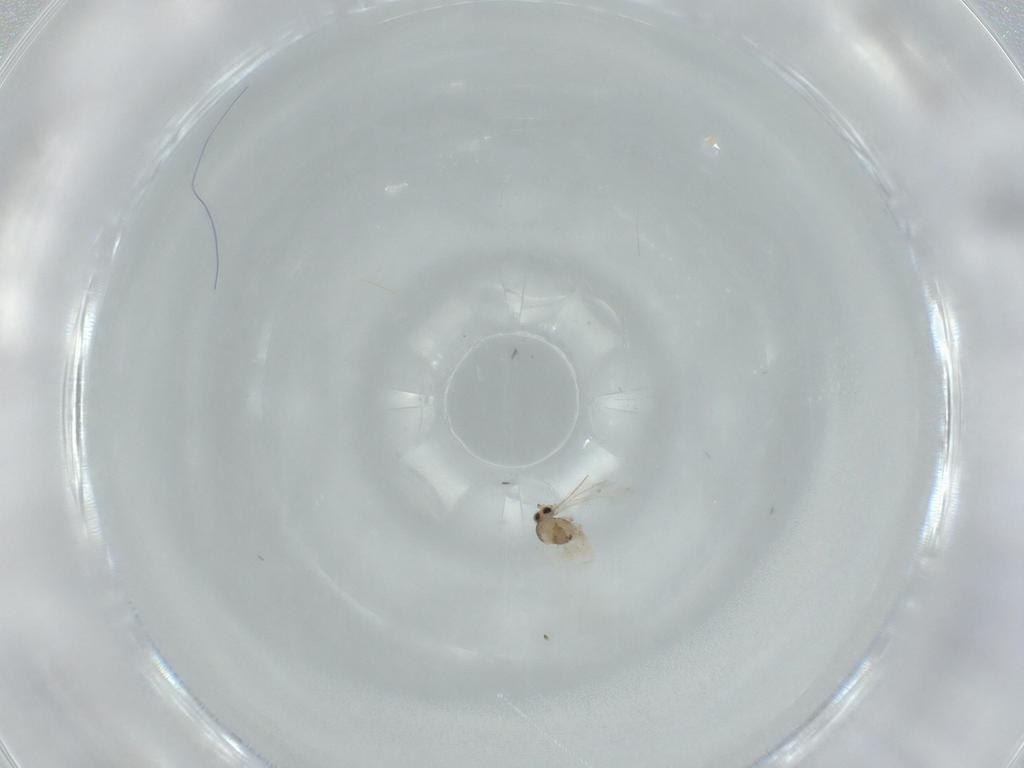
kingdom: Animalia
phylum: Arthropoda
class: Insecta
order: Diptera
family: Cecidomyiidae
